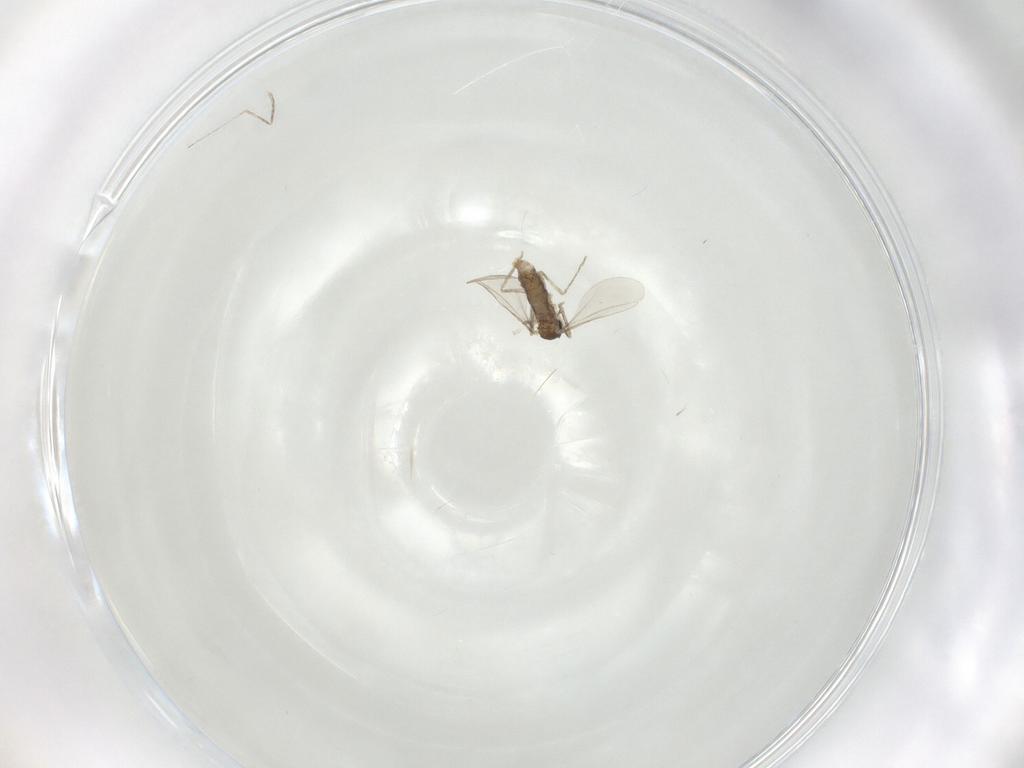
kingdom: Animalia
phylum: Arthropoda
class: Insecta
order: Diptera
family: Cecidomyiidae
